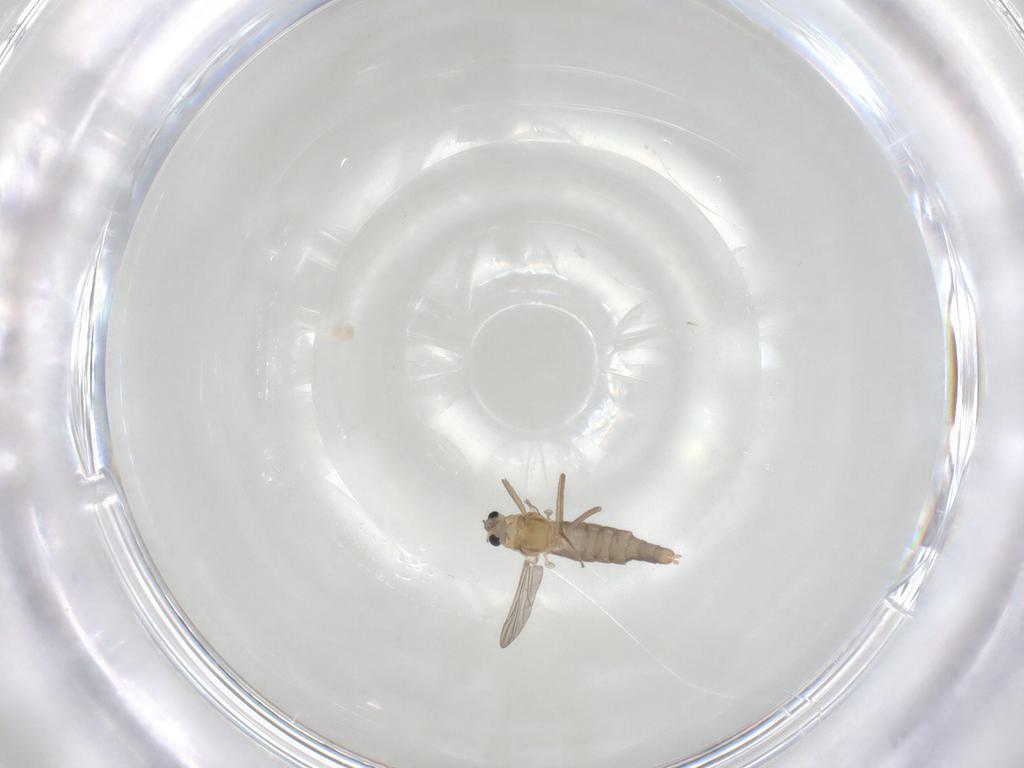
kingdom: Animalia
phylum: Arthropoda
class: Insecta
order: Diptera
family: Chironomidae
